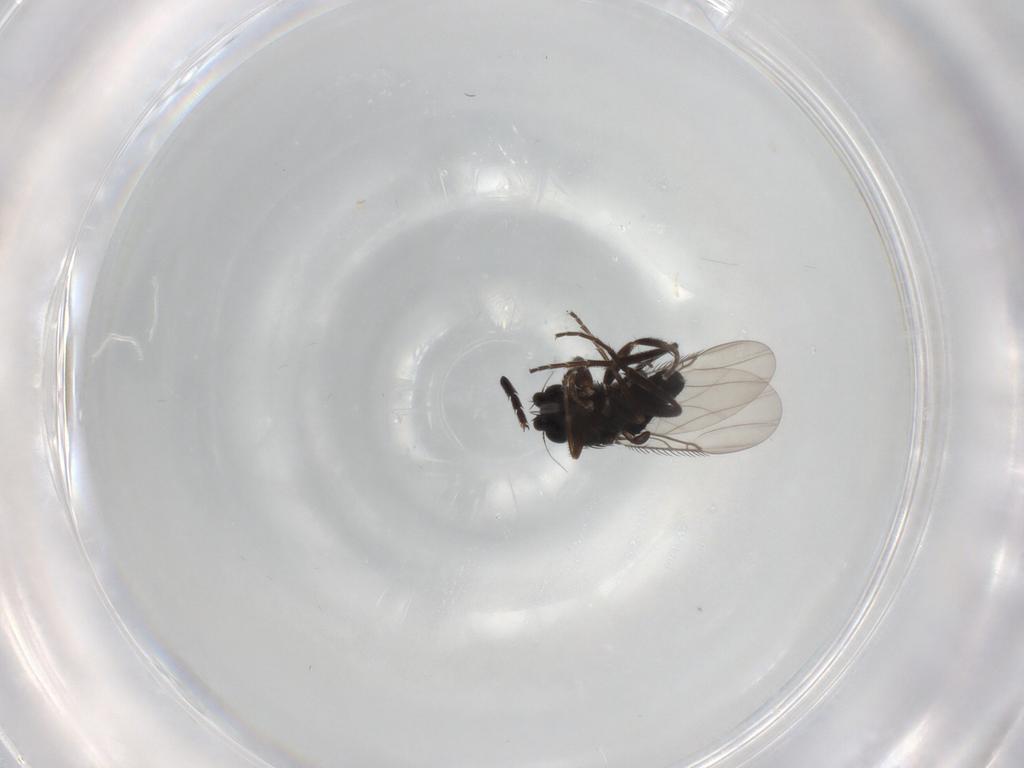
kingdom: Animalia
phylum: Arthropoda
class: Insecta
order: Diptera
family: Phoridae
